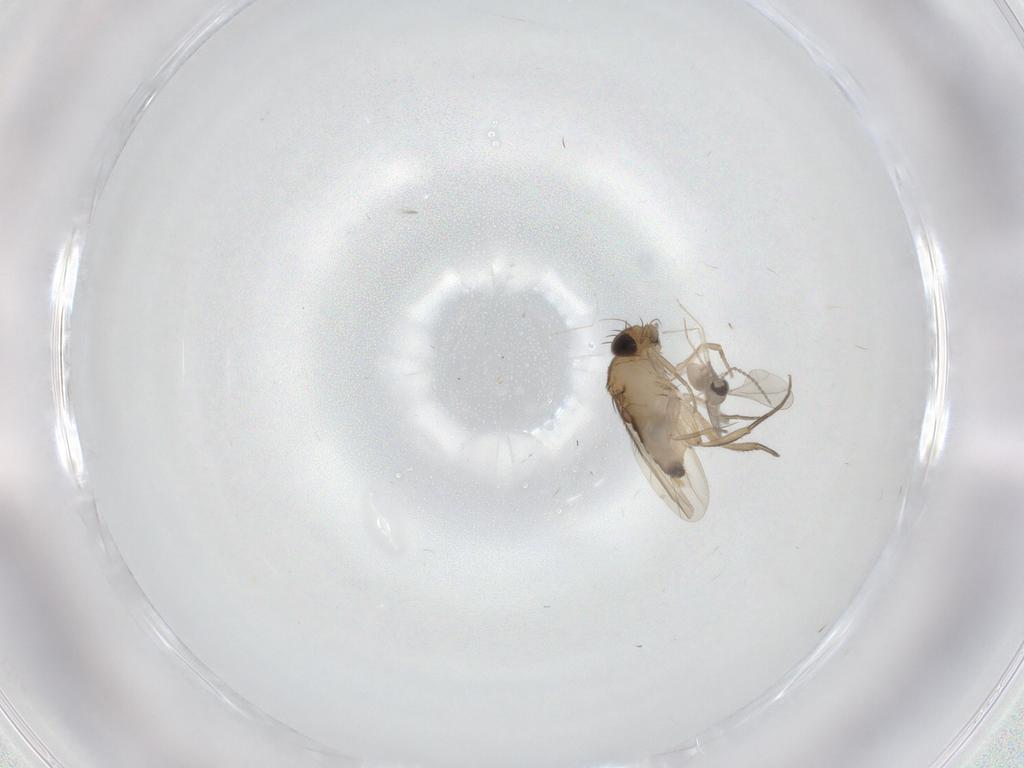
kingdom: Animalia
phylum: Arthropoda
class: Insecta
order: Diptera
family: Phoridae
